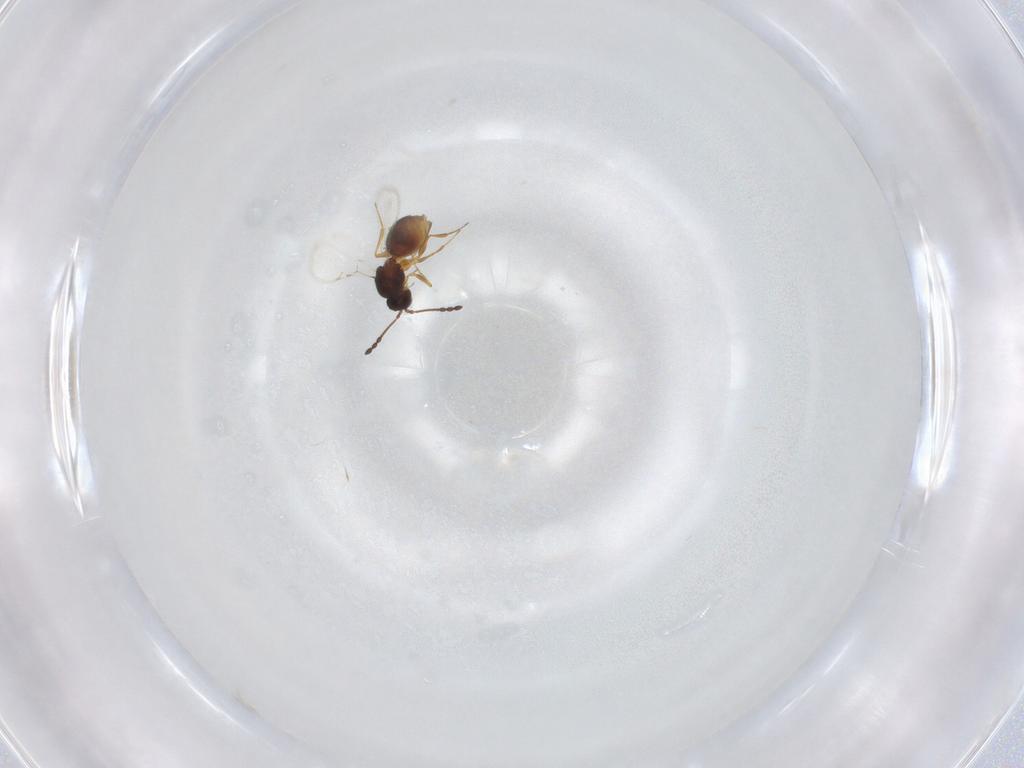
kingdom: Animalia
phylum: Arthropoda
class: Insecta
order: Hymenoptera
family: Figitidae
